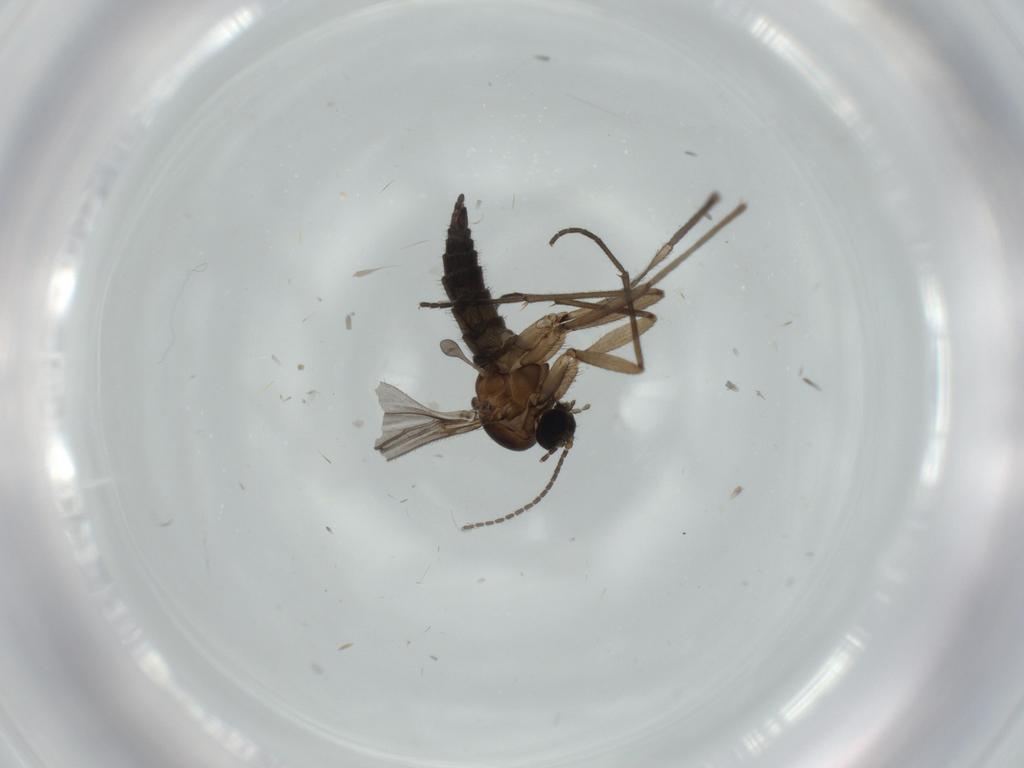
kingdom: Animalia
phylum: Arthropoda
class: Insecta
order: Diptera
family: Sciaridae
